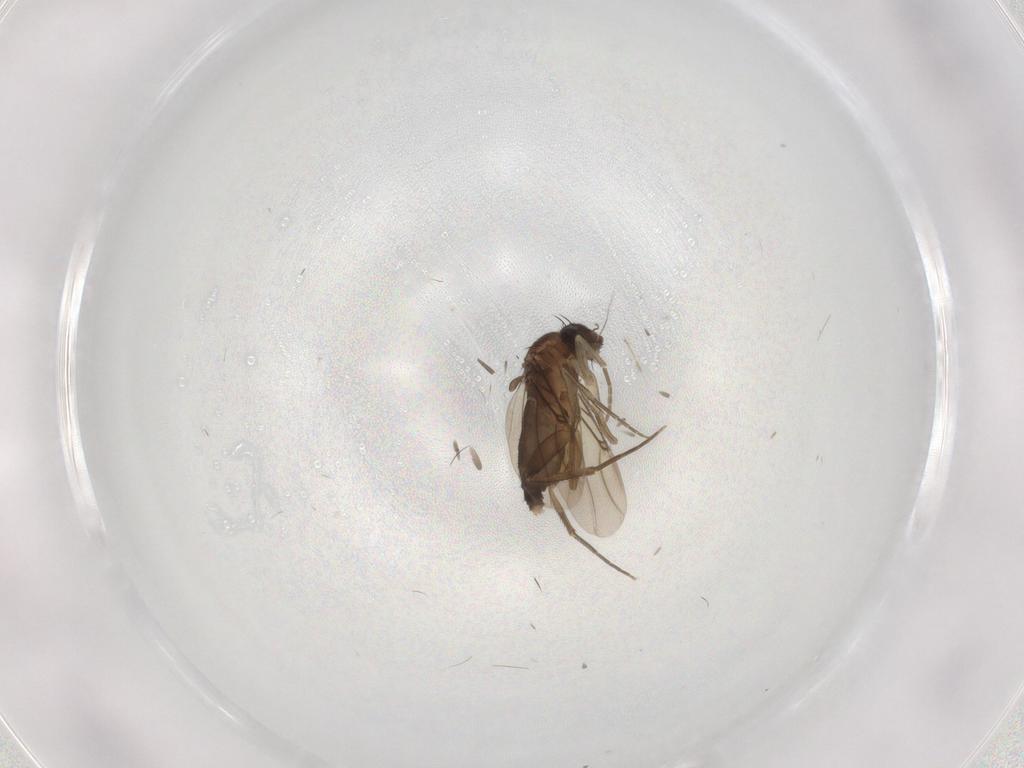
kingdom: Animalia
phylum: Arthropoda
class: Insecta
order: Diptera
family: Phoridae
